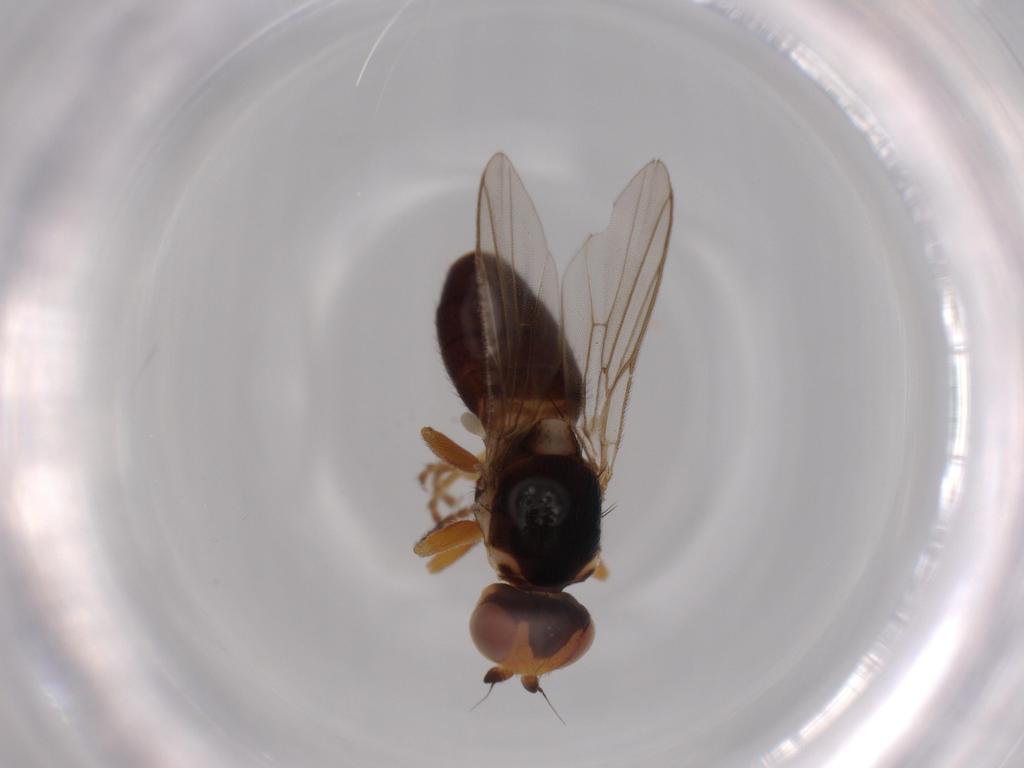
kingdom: Animalia
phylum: Arthropoda
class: Insecta
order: Diptera
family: Chloropidae
